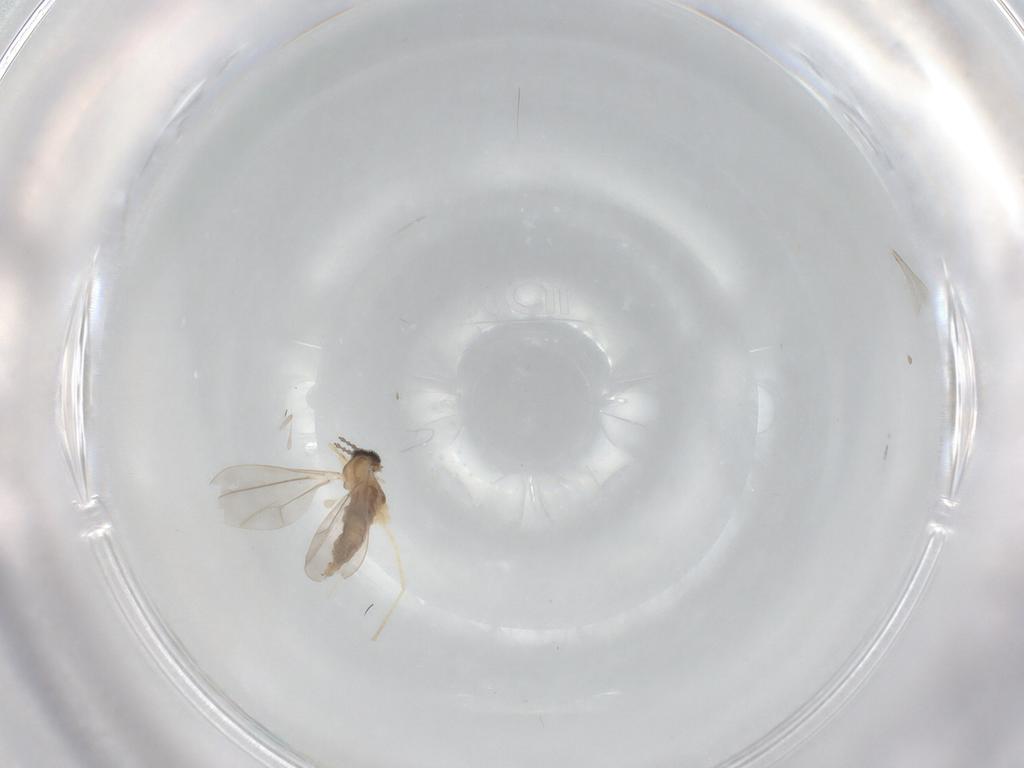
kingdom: Animalia
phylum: Arthropoda
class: Insecta
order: Diptera
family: Cecidomyiidae
